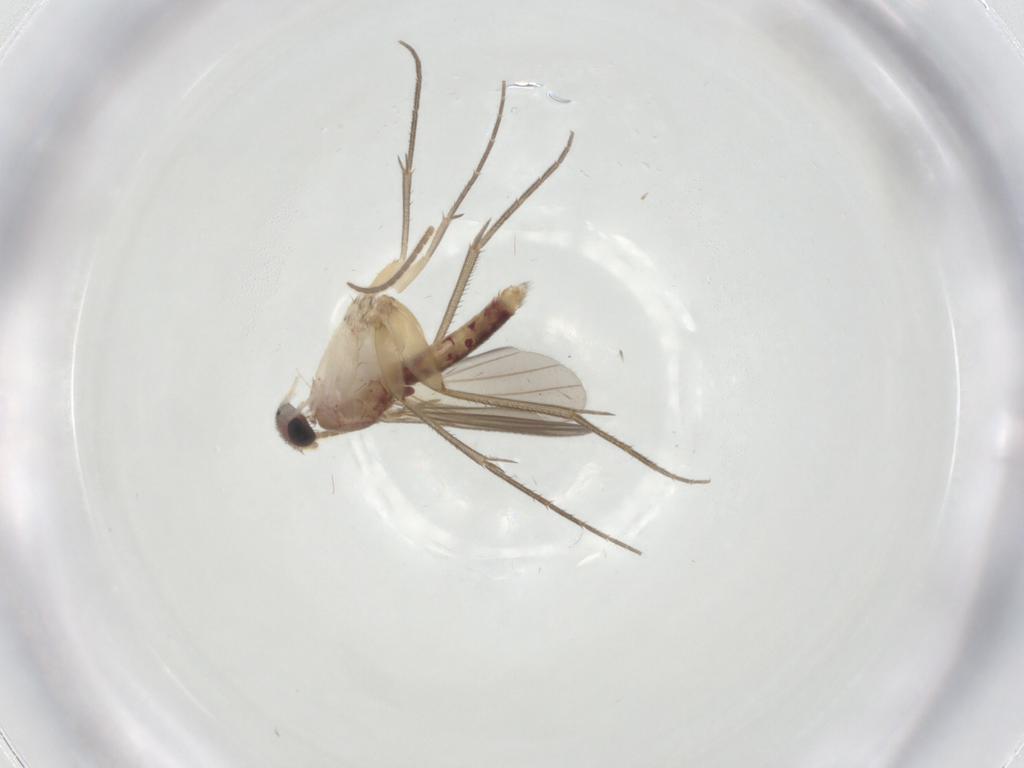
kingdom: Animalia
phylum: Arthropoda
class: Insecta
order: Diptera
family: Mycetophilidae
